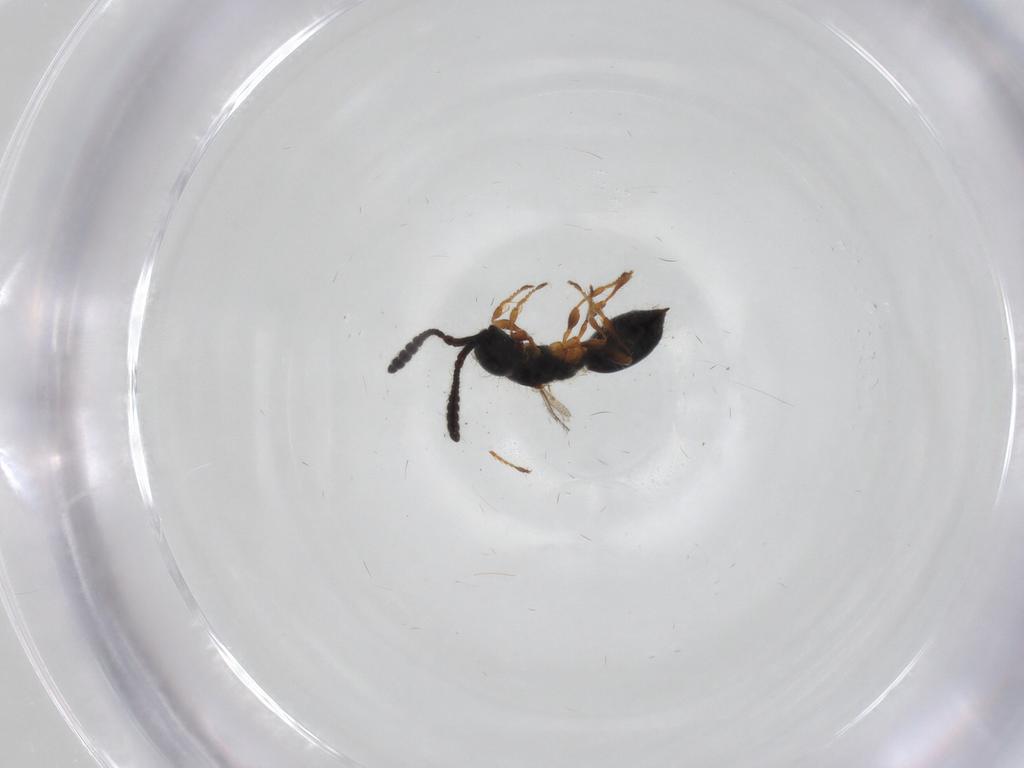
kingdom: Animalia
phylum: Arthropoda
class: Insecta
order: Hymenoptera
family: Diapriidae
